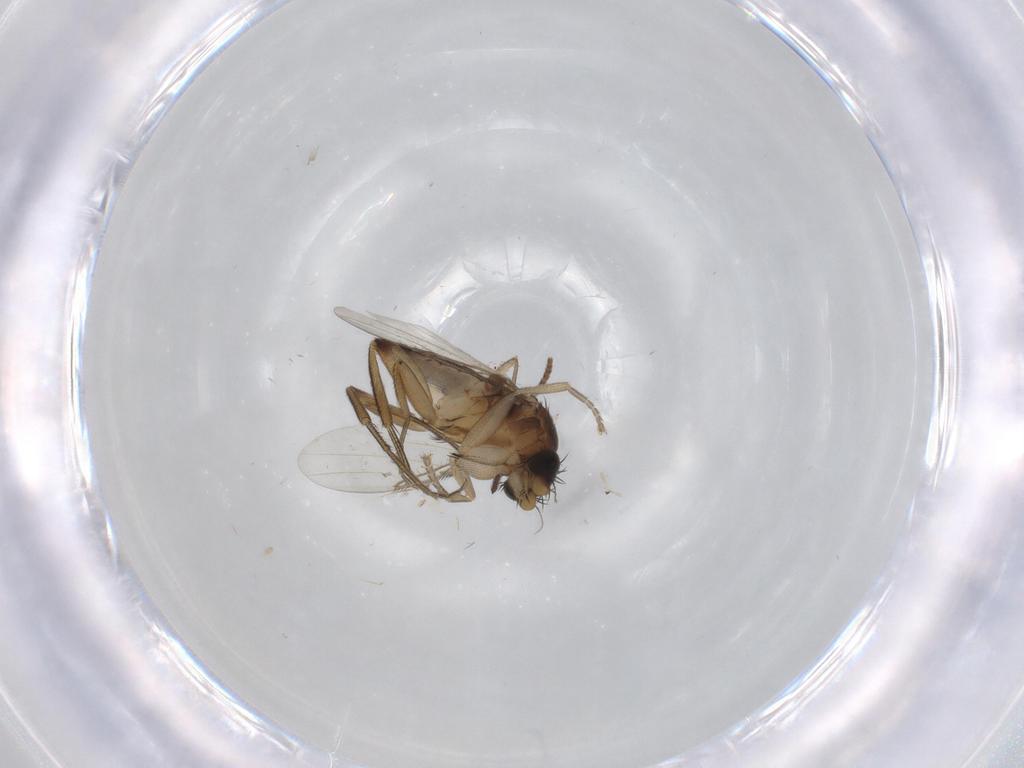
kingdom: Animalia
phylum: Arthropoda
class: Insecta
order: Diptera
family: Phoridae
